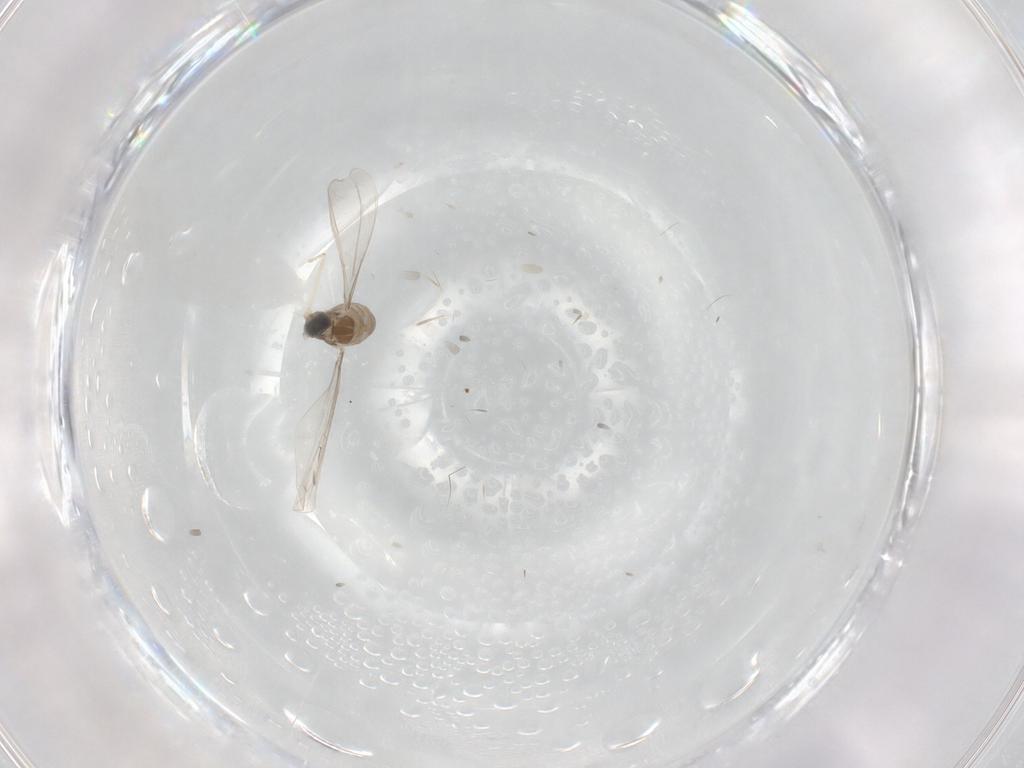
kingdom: Animalia
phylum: Arthropoda
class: Insecta
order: Diptera
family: Cecidomyiidae
